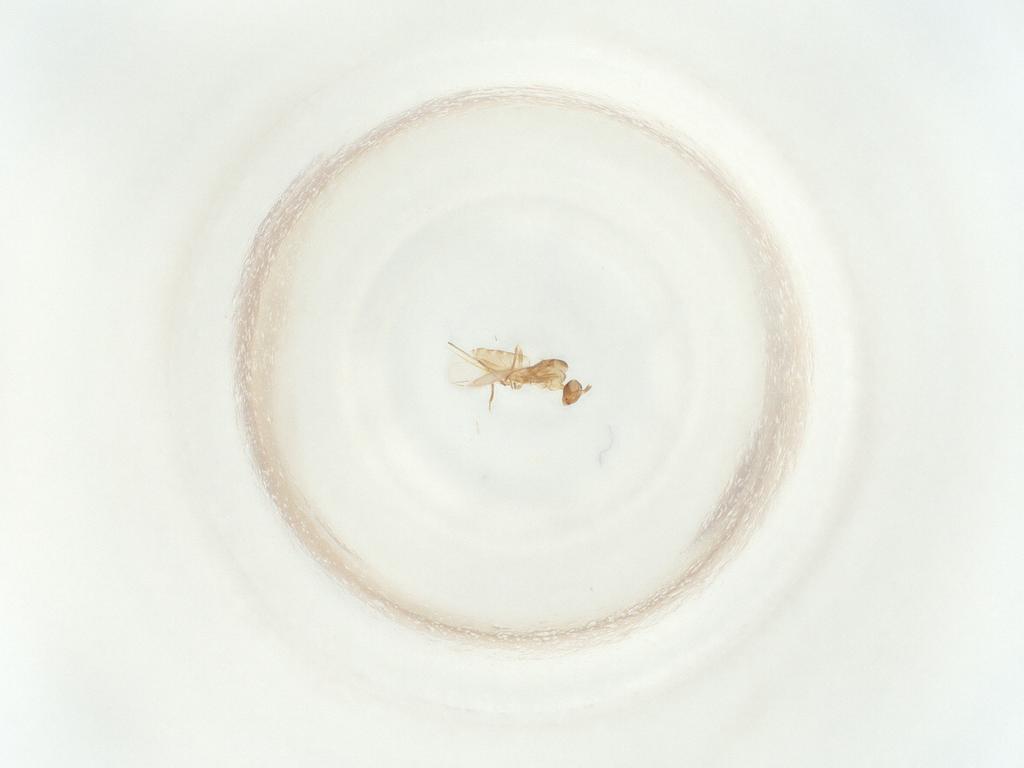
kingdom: Animalia
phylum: Arthropoda
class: Insecta
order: Hymenoptera
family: Mymaridae
